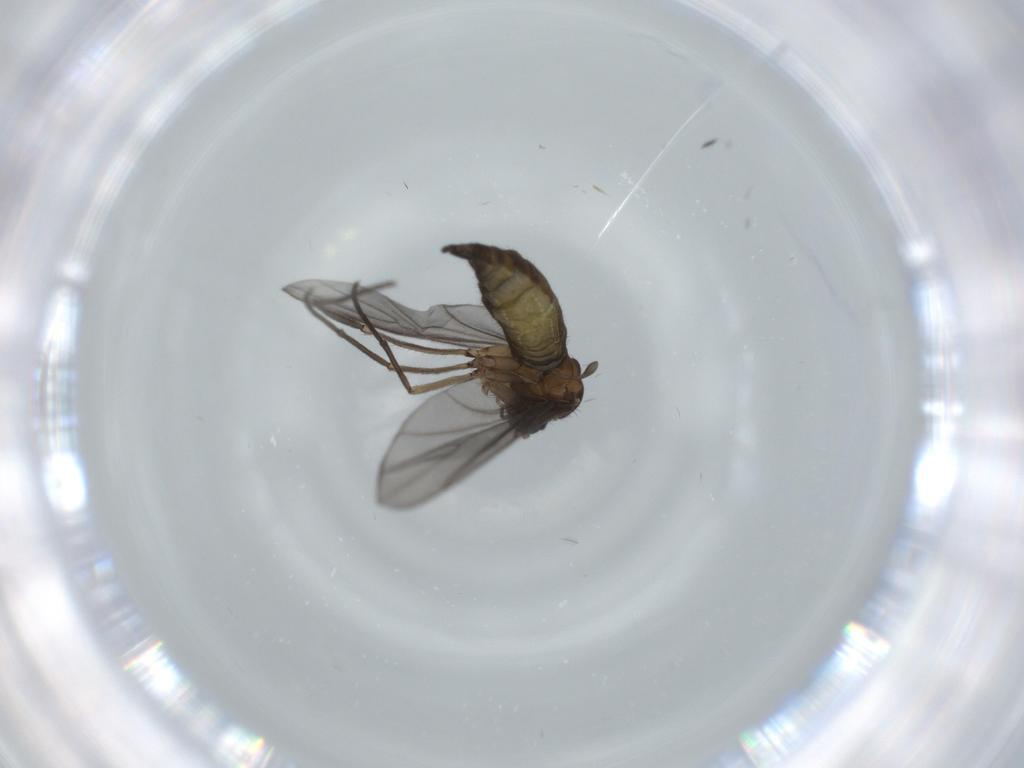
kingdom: Animalia
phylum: Arthropoda
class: Insecta
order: Diptera
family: Sciaridae
